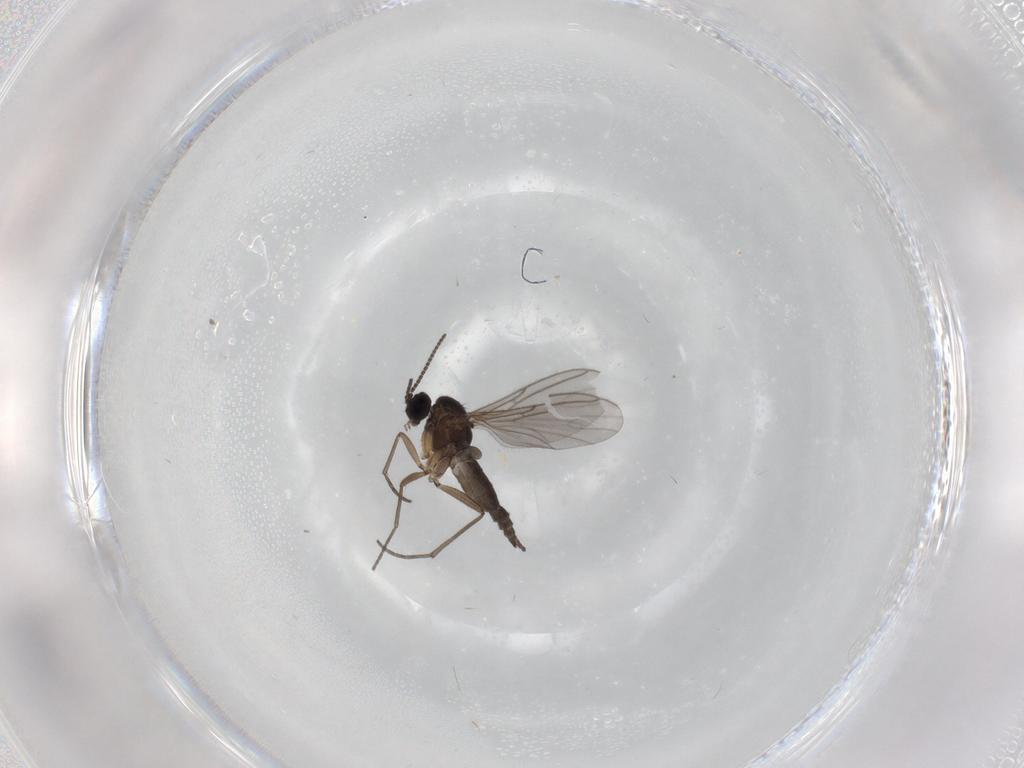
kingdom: Animalia
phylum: Arthropoda
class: Insecta
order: Diptera
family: Sciaridae
